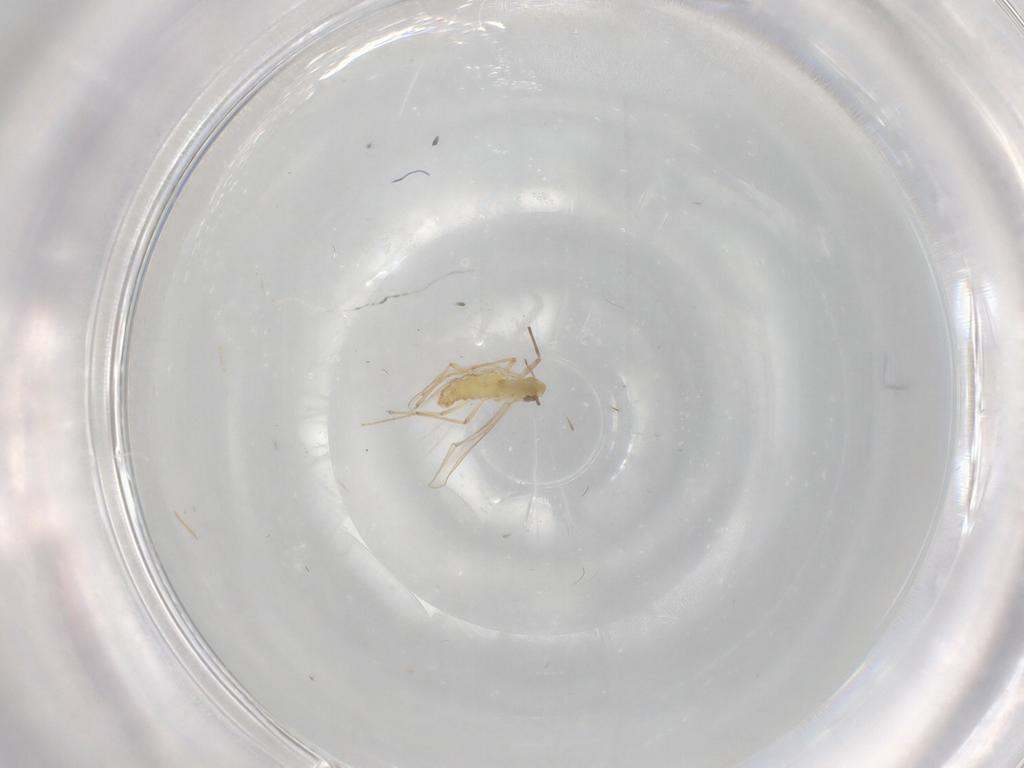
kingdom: Animalia
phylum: Arthropoda
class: Insecta
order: Diptera
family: Chironomidae
